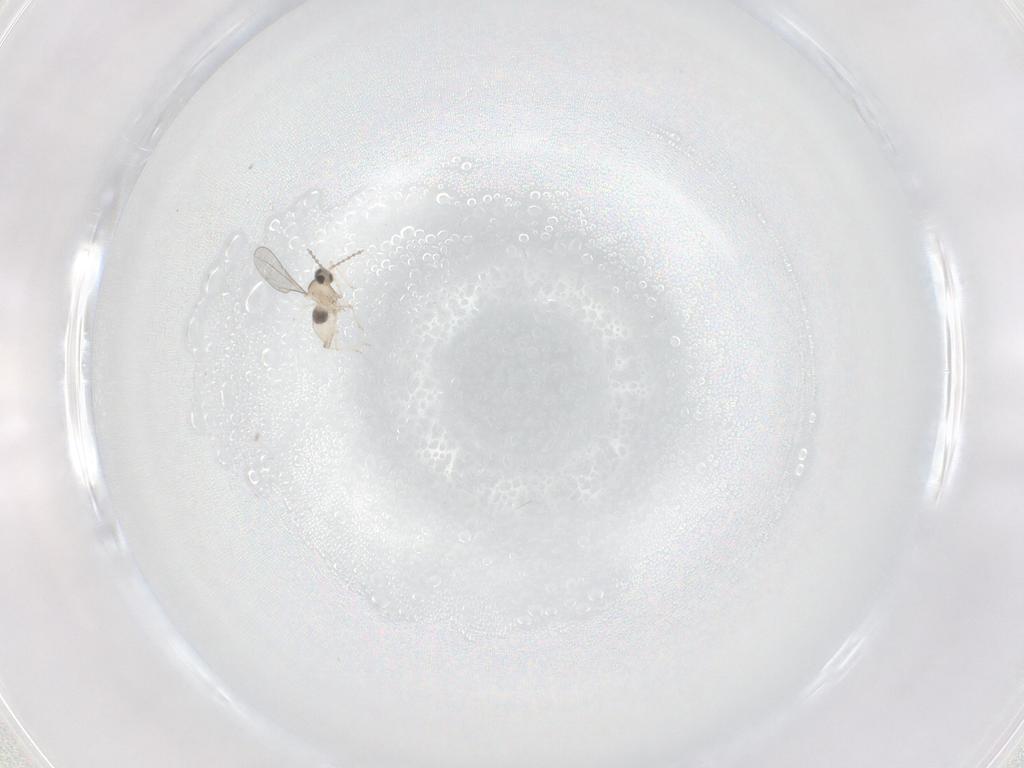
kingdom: Animalia
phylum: Arthropoda
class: Insecta
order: Diptera
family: Cecidomyiidae
